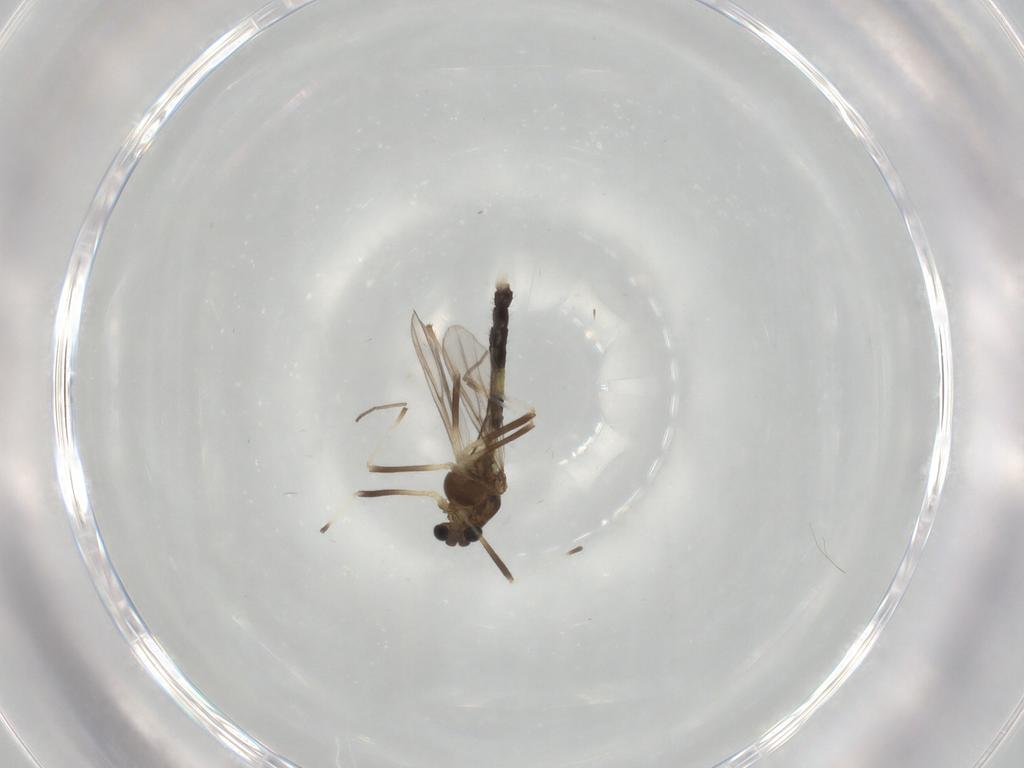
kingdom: Animalia
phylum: Arthropoda
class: Insecta
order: Diptera
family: Chironomidae
